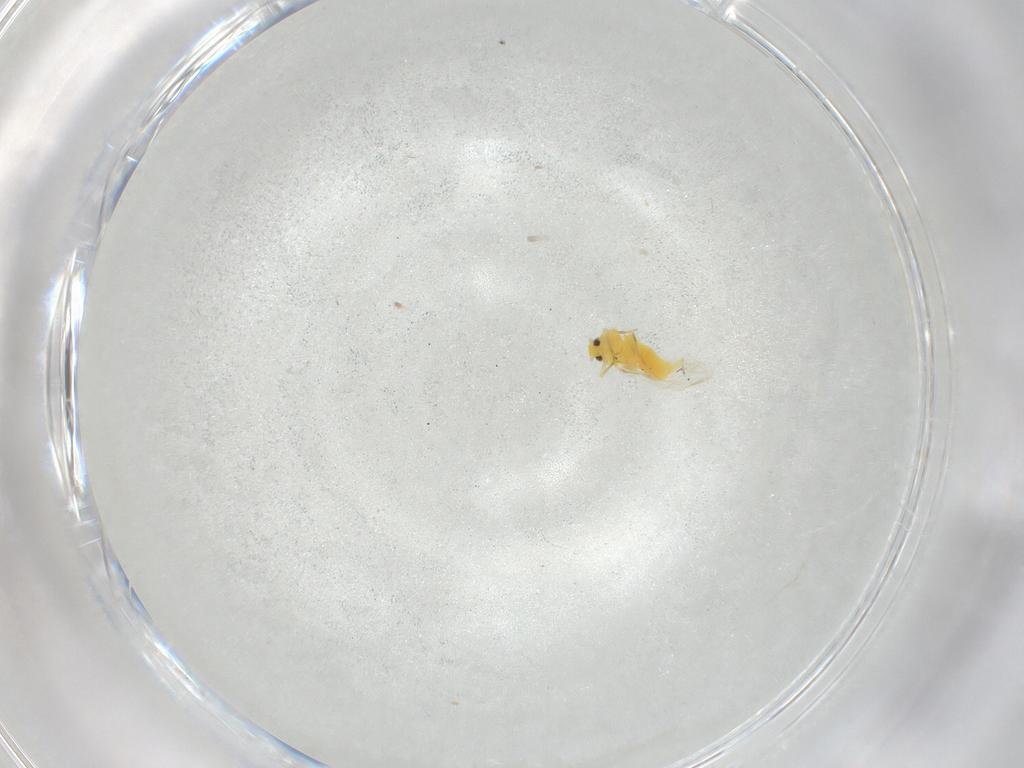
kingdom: Animalia
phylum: Arthropoda
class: Insecta
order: Hemiptera
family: Aleyrodidae
